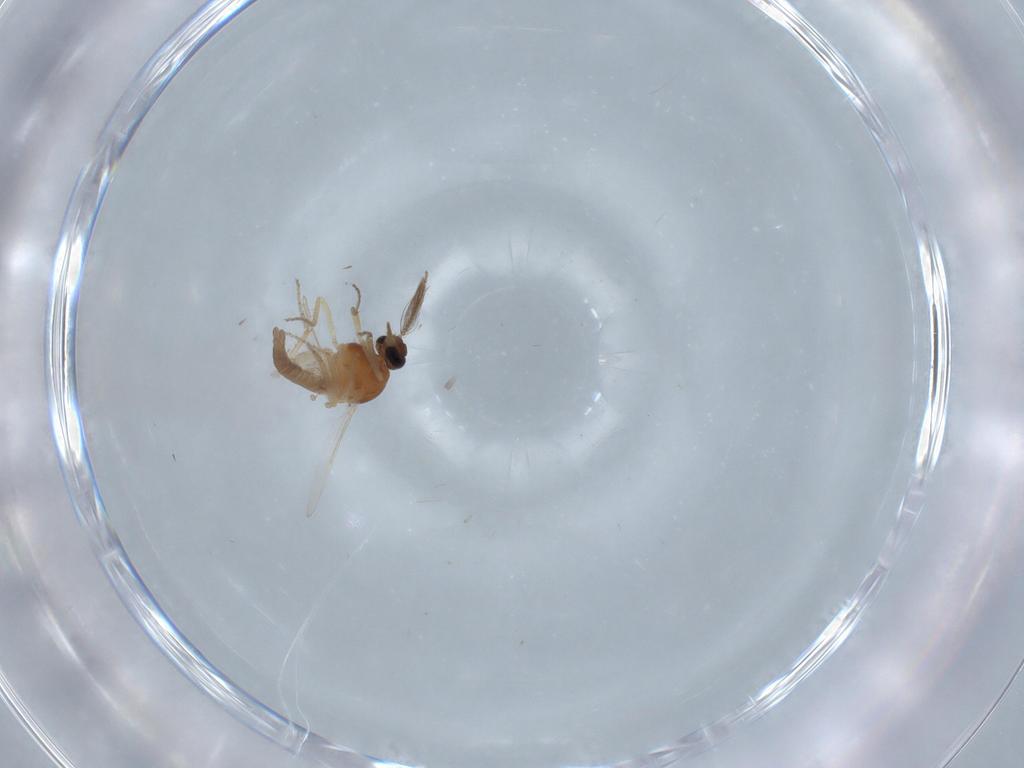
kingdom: Animalia
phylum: Arthropoda
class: Insecta
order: Diptera
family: Ceratopogonidae
